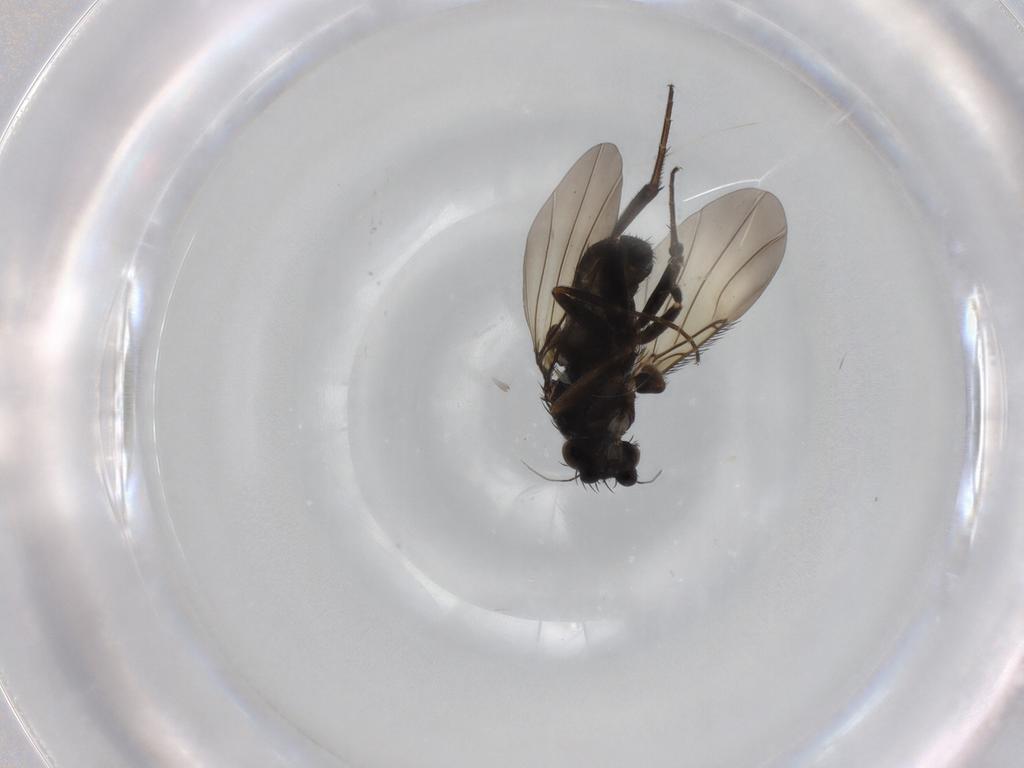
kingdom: Animalia
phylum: Arthropoda
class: Insecta
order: Diptera
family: Phoridae
